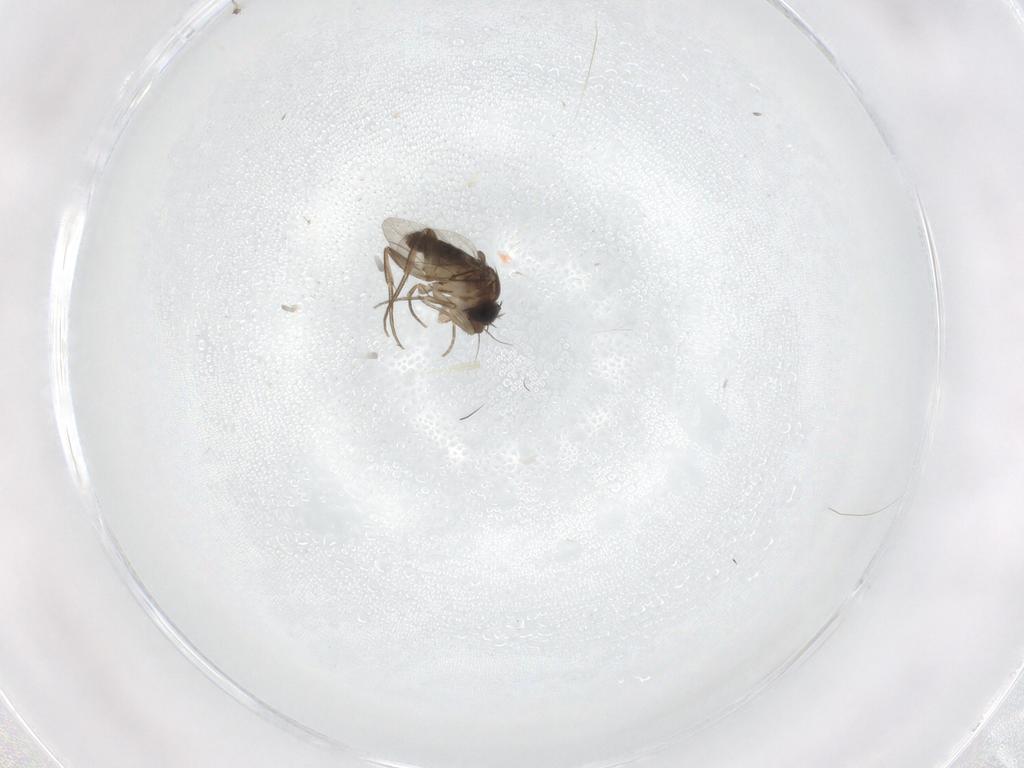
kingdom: Animalia
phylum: Arthropoda
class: Insecta
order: Diptera
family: Phoridae
